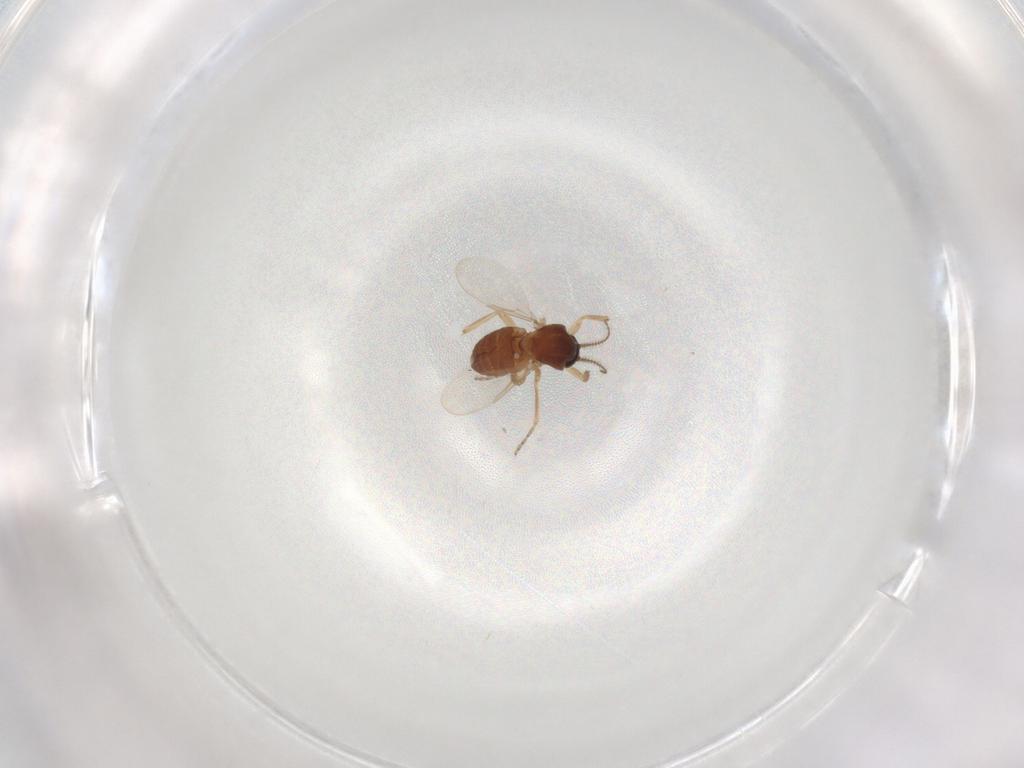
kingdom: Animalia
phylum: Arthropoda
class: Insecta
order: Diptera
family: Ceratopogonidae
